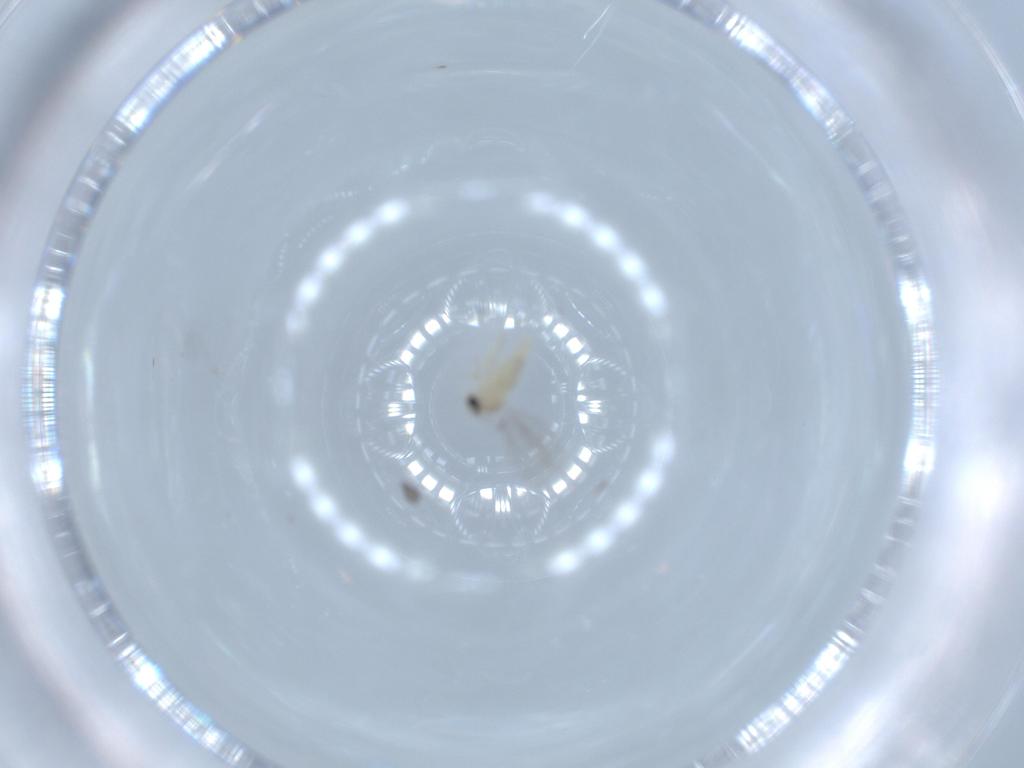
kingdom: Animalia
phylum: Arthropoda
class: Insecta
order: Diptera
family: Cecidomyiidae
